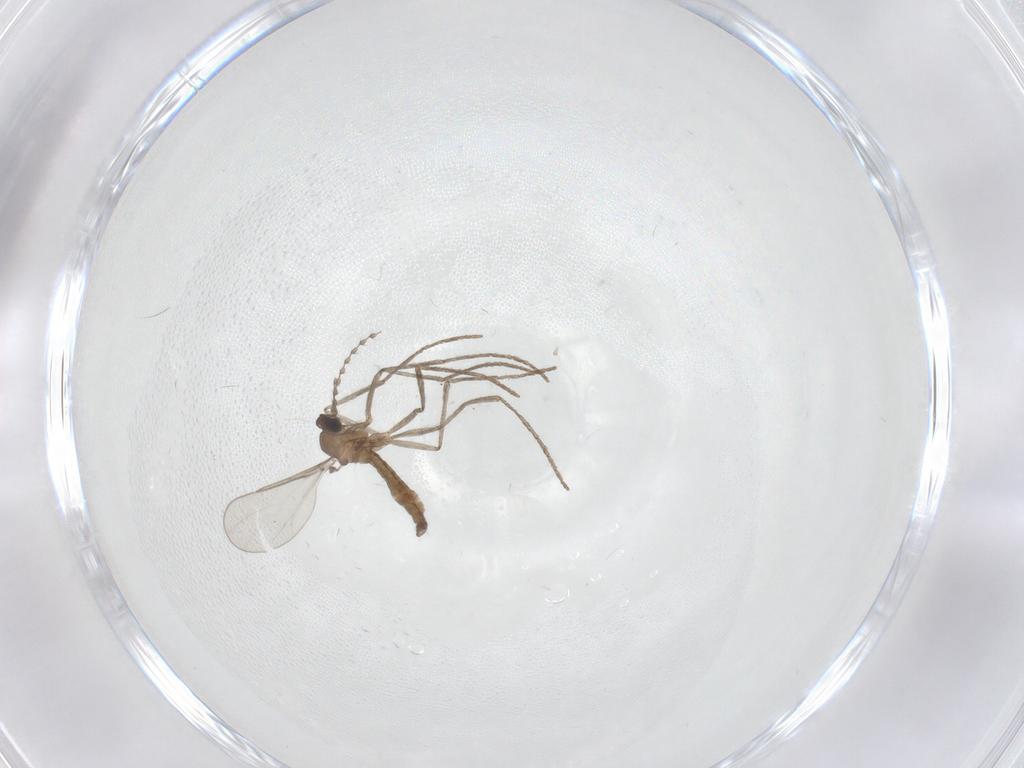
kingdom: Animalia
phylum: Arthropoda
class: Insecta
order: Diptera
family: Cecidomyiidae
